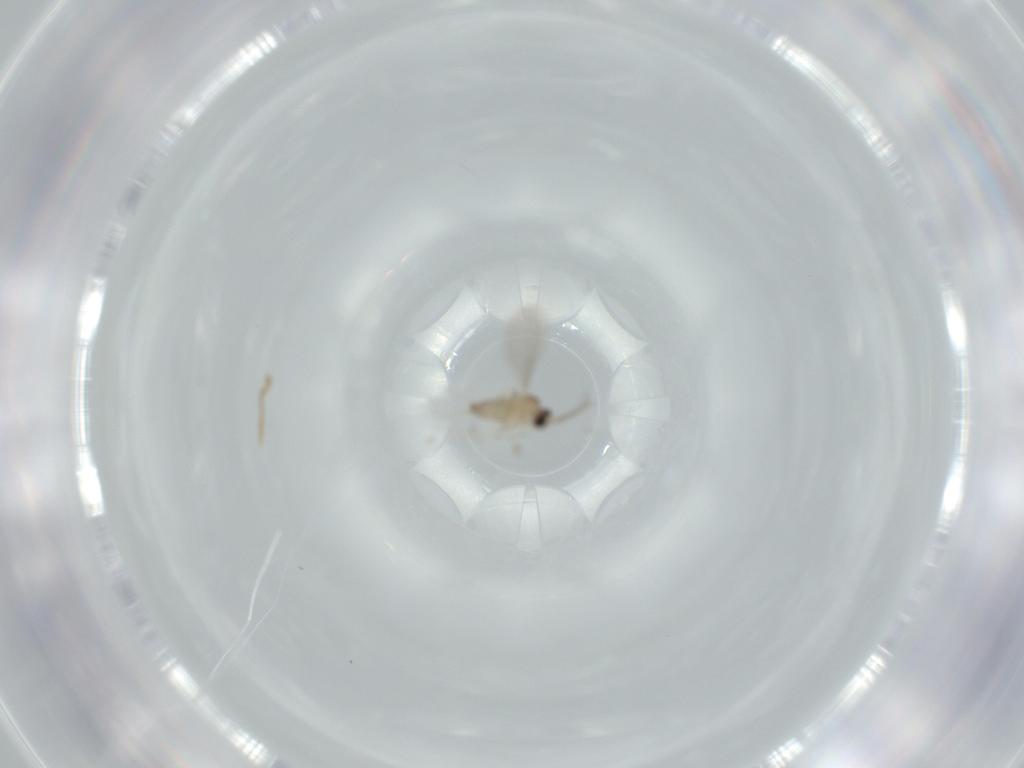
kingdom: Animalia
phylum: Arthropoda
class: Insecta
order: Diptera
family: Cecidomyiidae
